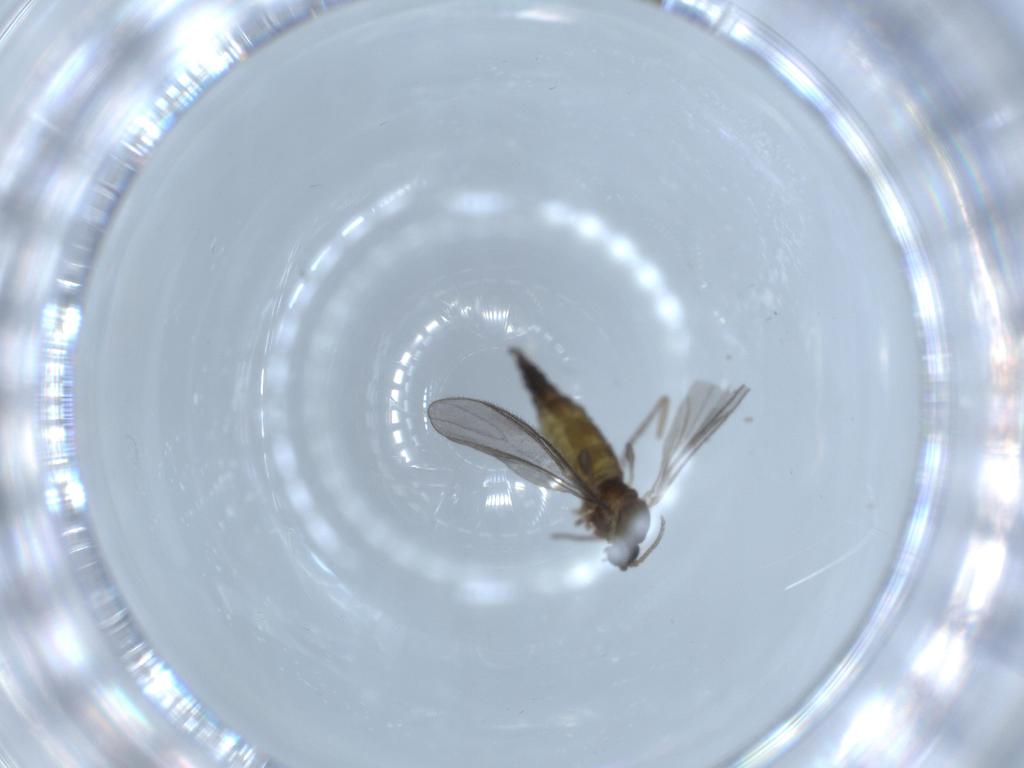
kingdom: Animalia
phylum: Arthropoda
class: Insecta
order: Diptera
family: Sciaridae
